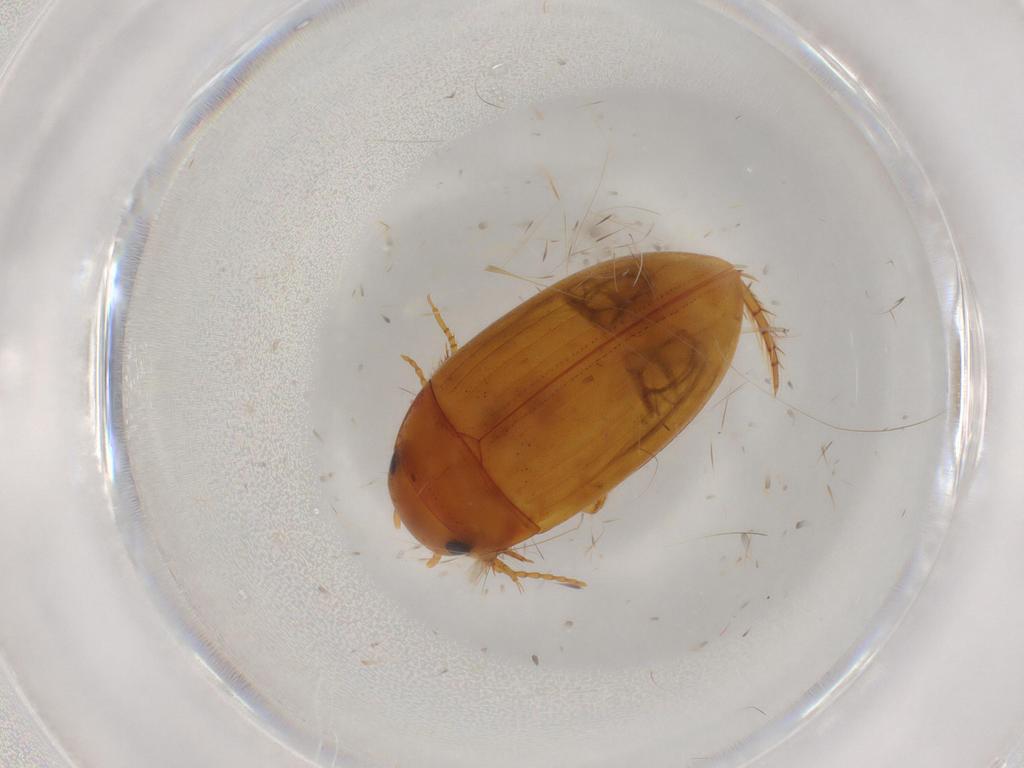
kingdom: Animalia
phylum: Arthropoda
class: Insecta
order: Coleoptera
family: Dytiscidae
